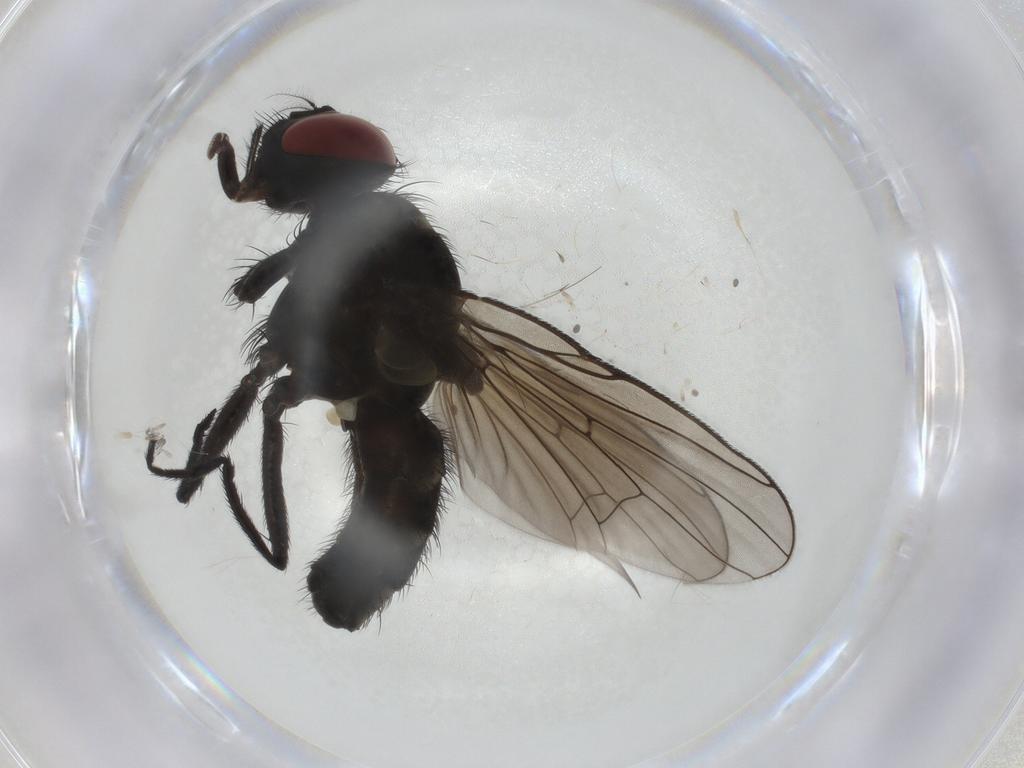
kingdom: Animalia
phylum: Arthropoda
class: Insecta
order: Diptera
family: Muscidae
